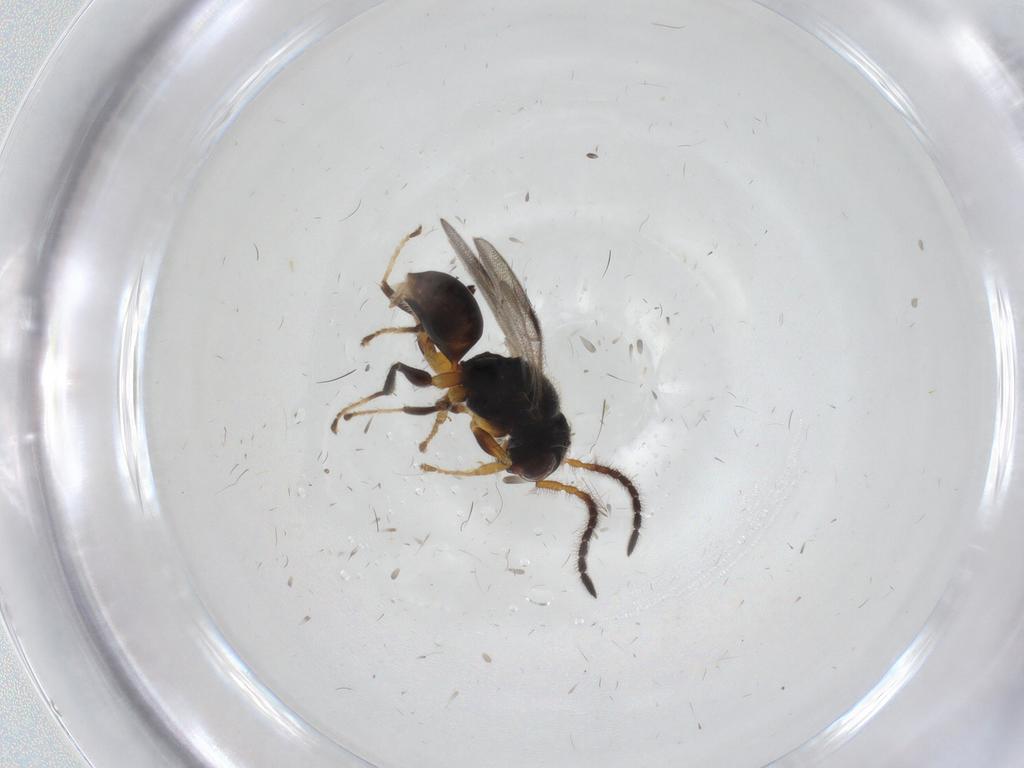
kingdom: Animalia
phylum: Arthropoda
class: Insecta
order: Hymenoptera
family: Dryinidae
